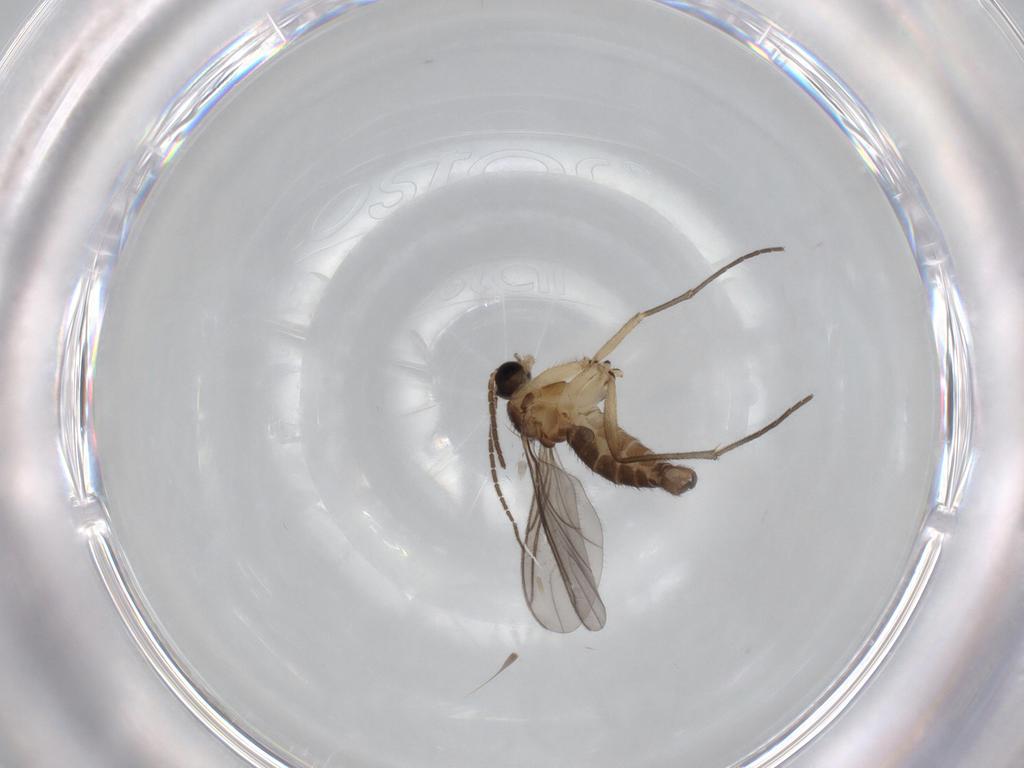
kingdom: Animalia
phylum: Arthropoda
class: Insecta
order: Diptera
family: Sciaridae
